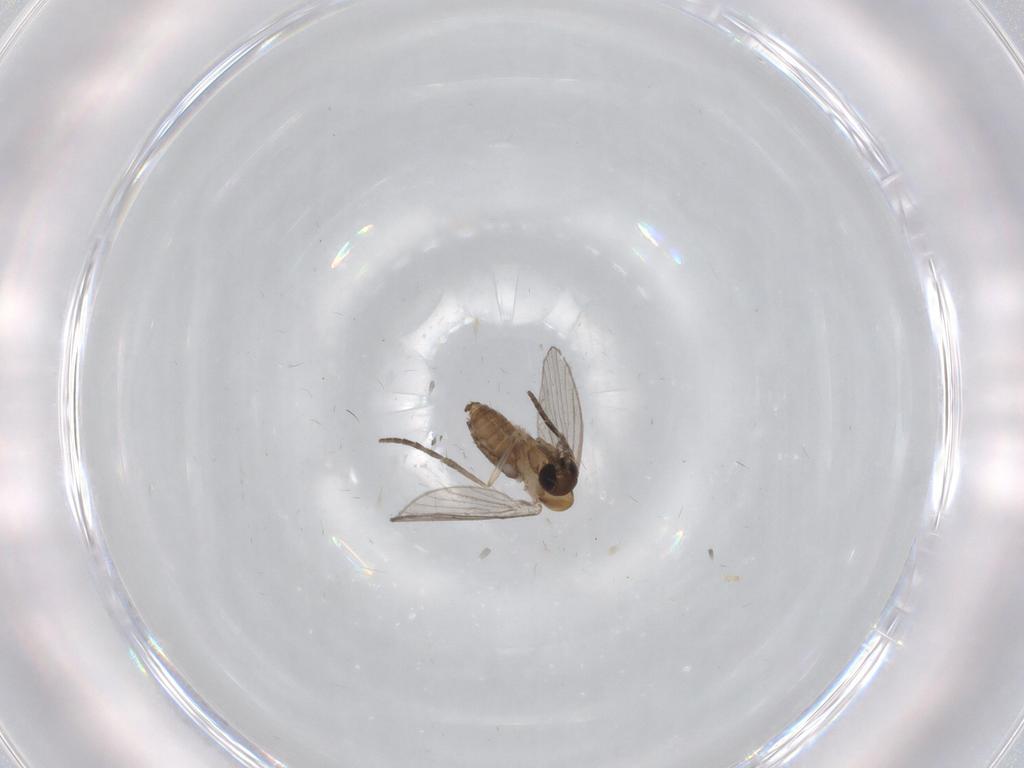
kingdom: Animalia
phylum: Arthropoda
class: Insecta
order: Diptera
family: Psychodidae
